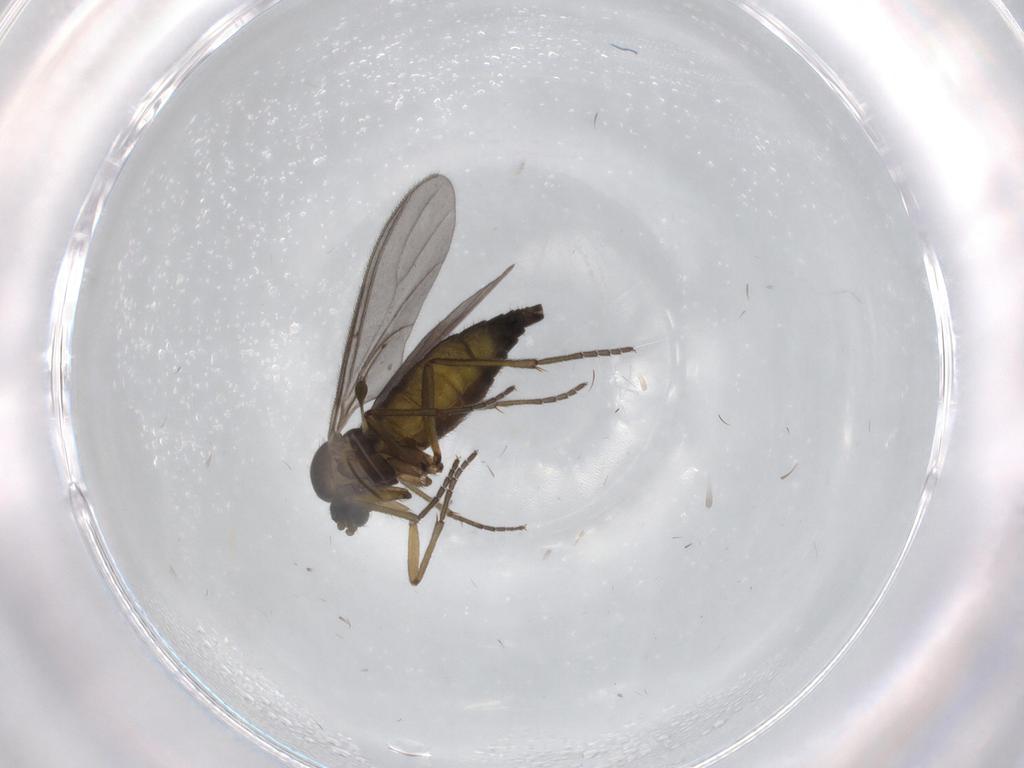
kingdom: Animalia
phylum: Arthropoda
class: Insecta
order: Diptera
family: Sciaridae
